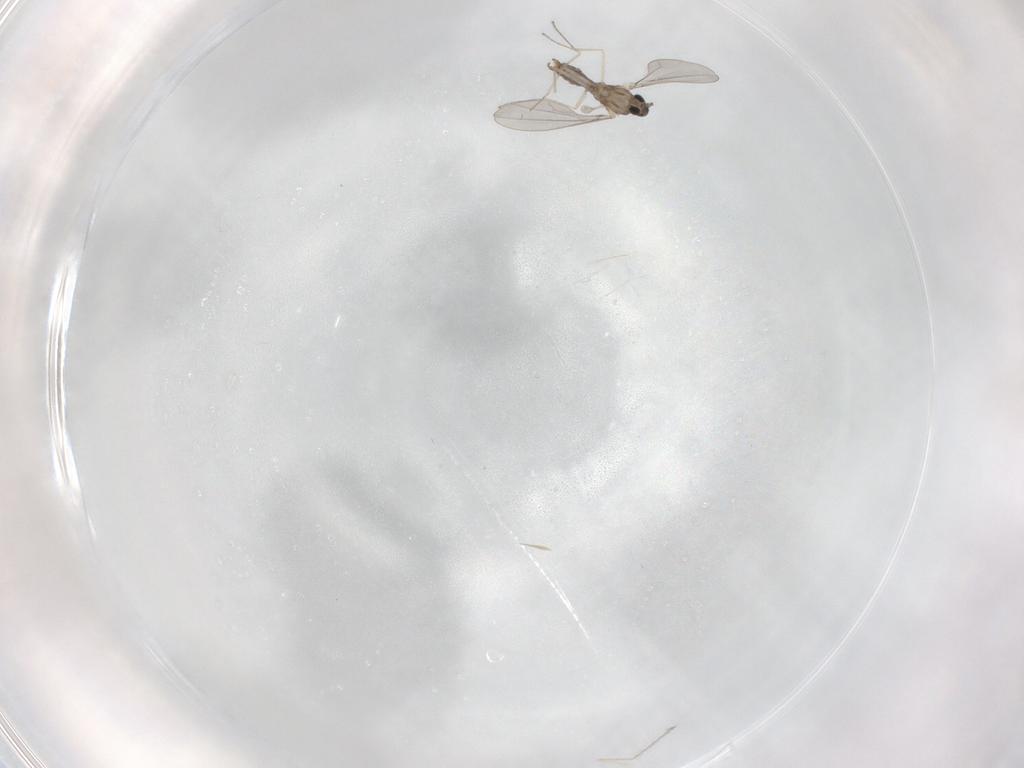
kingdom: Animalia
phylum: Arthropoda
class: Insecta
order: Diptera
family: Cecidomyiidae
